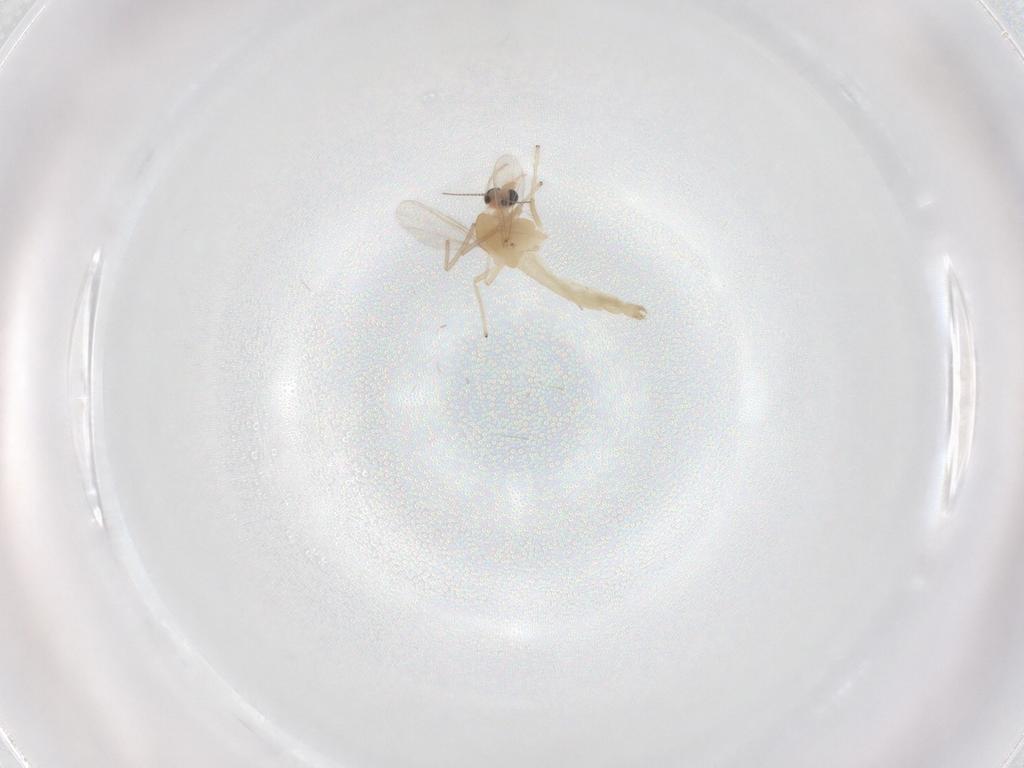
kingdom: Animalia
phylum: Arthropoda
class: Insecta
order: Diptera
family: Chironomidae
